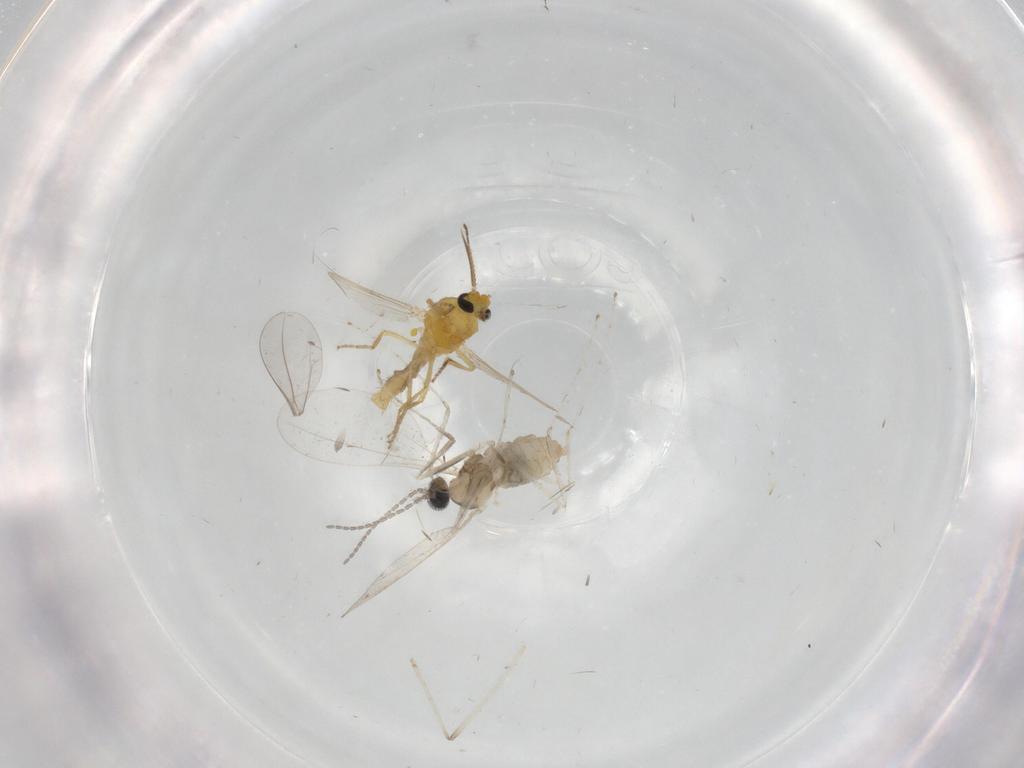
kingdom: Animalia
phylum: Arthropoda
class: Insecta
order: Diptera
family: Ceratopogonidae
